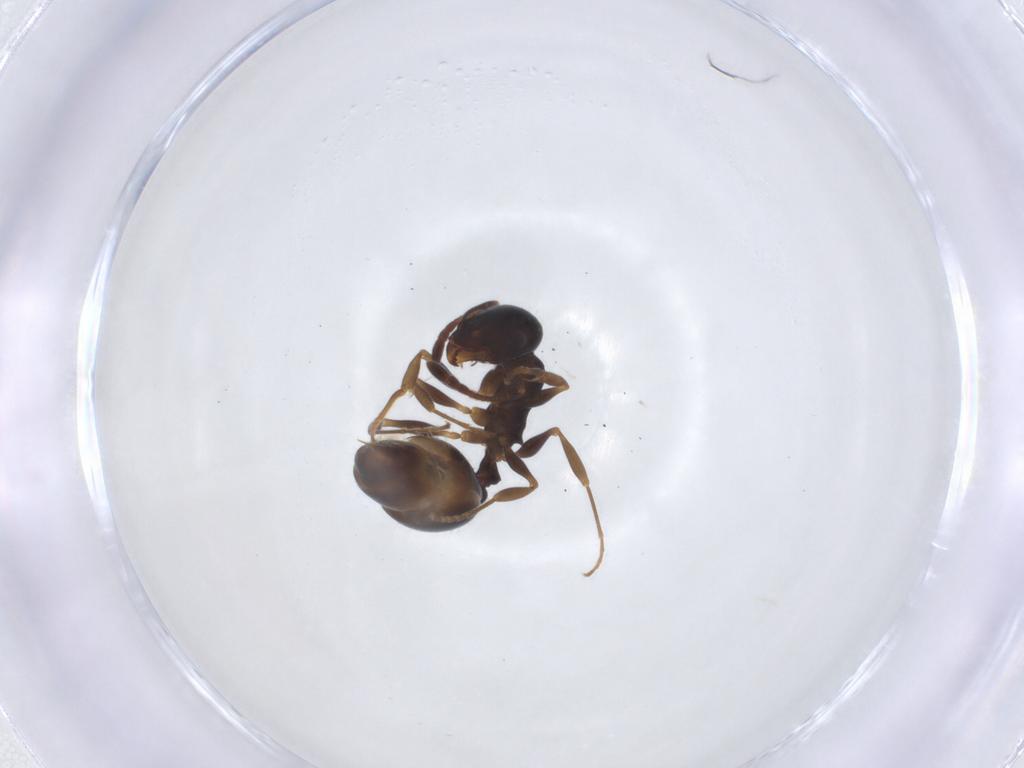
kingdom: Animalia
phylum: Arthropoda
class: Insecta
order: Hymenoptera
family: Formicidae
